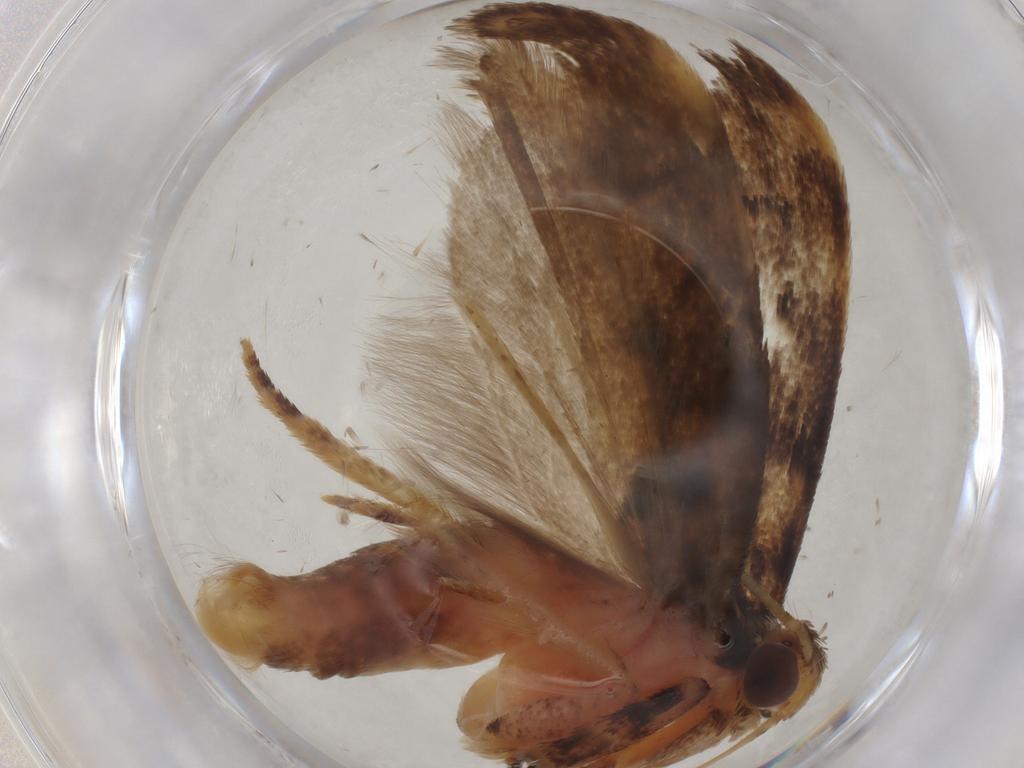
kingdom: Animalia
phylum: Arthropoda
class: Insecta
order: Lepidoptera
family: Gelechiidae
